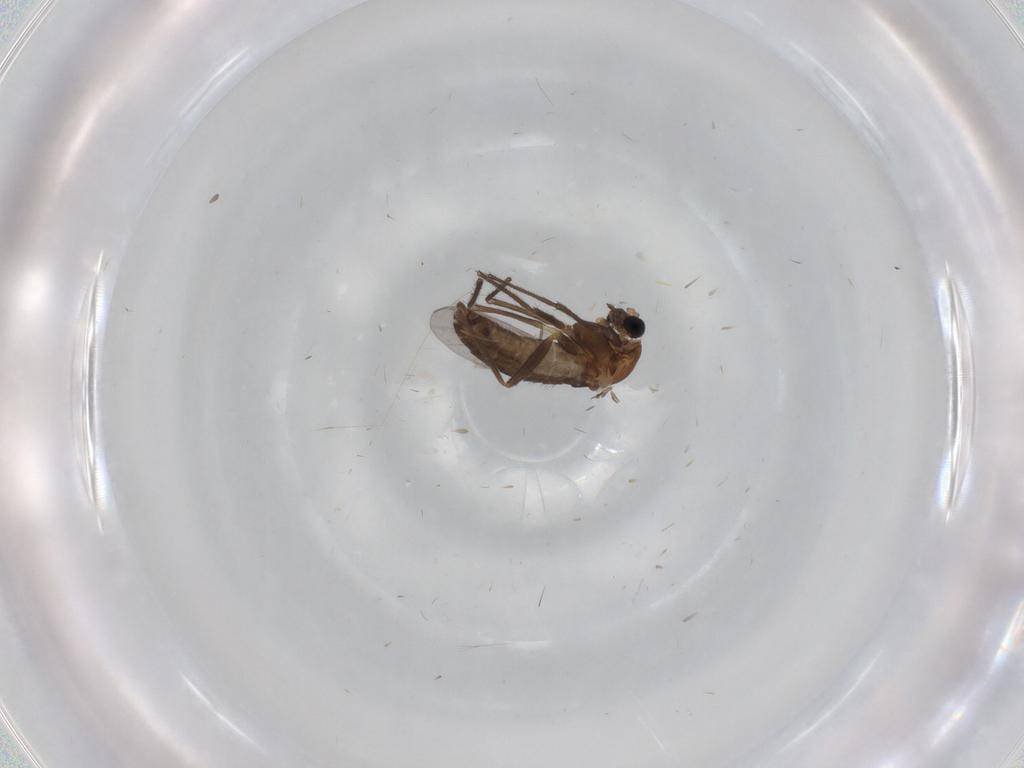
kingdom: Animalia
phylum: Arthropoda
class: Insecta
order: Diptera
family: Chironomidae
